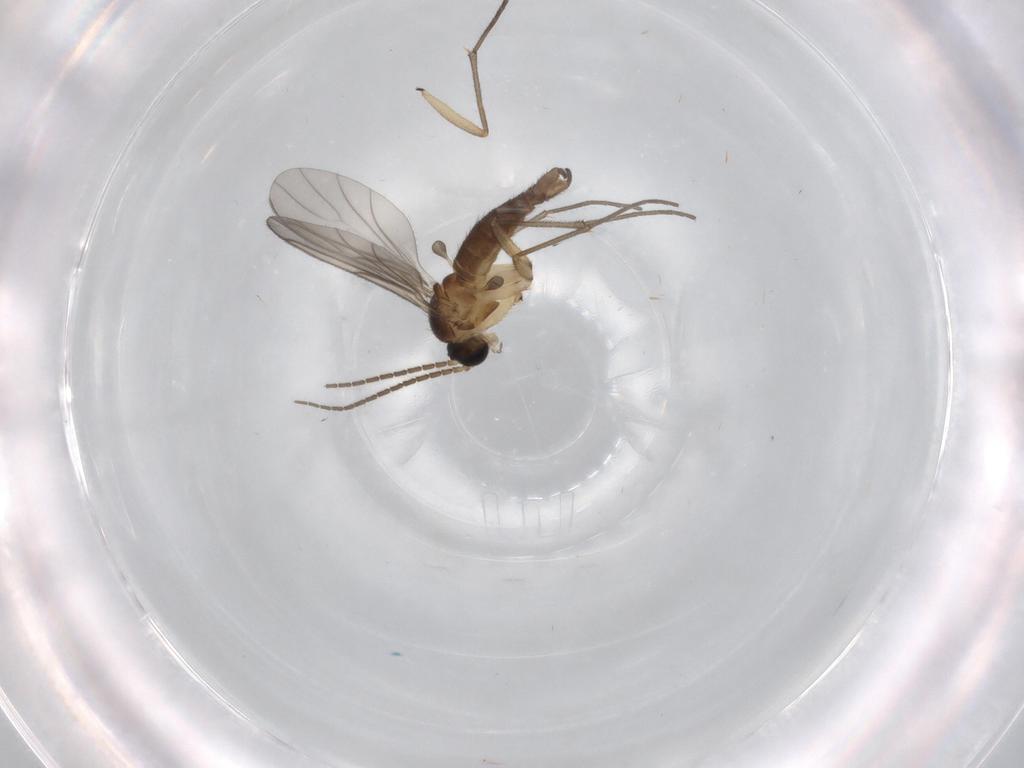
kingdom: Animalia
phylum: Arthropoda
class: Insecta
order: Diptera
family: Sciaridae
